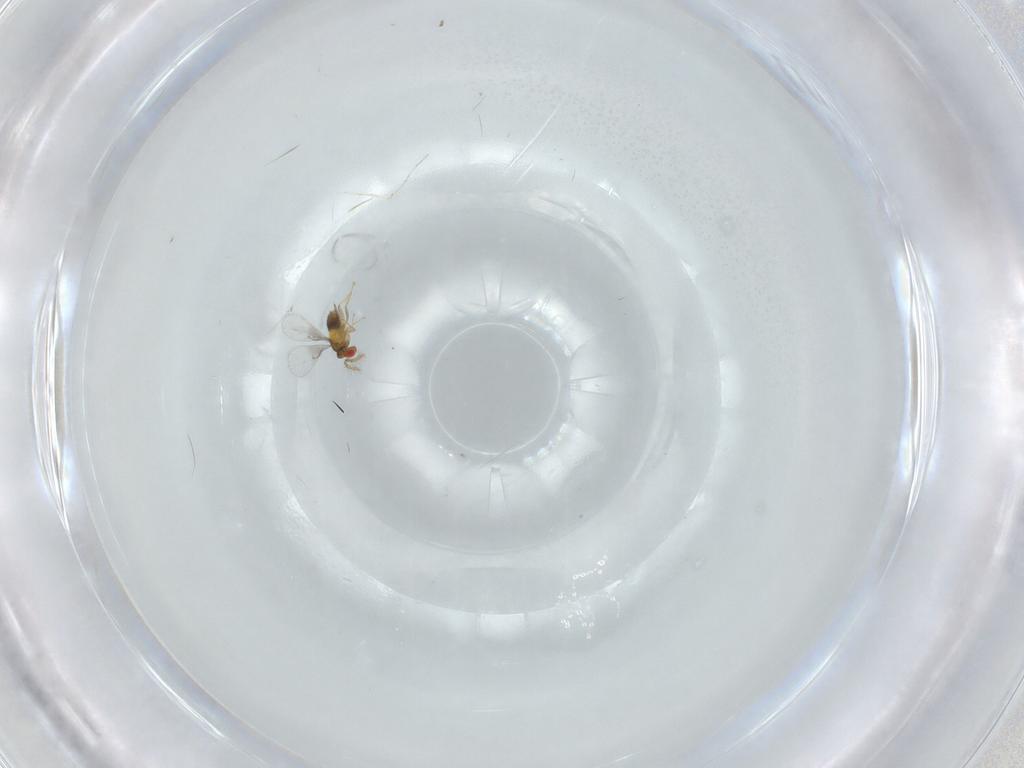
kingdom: Animalia
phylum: Arthropoda
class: Insecta
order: Hymenoptera
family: Trichogrammatidae
